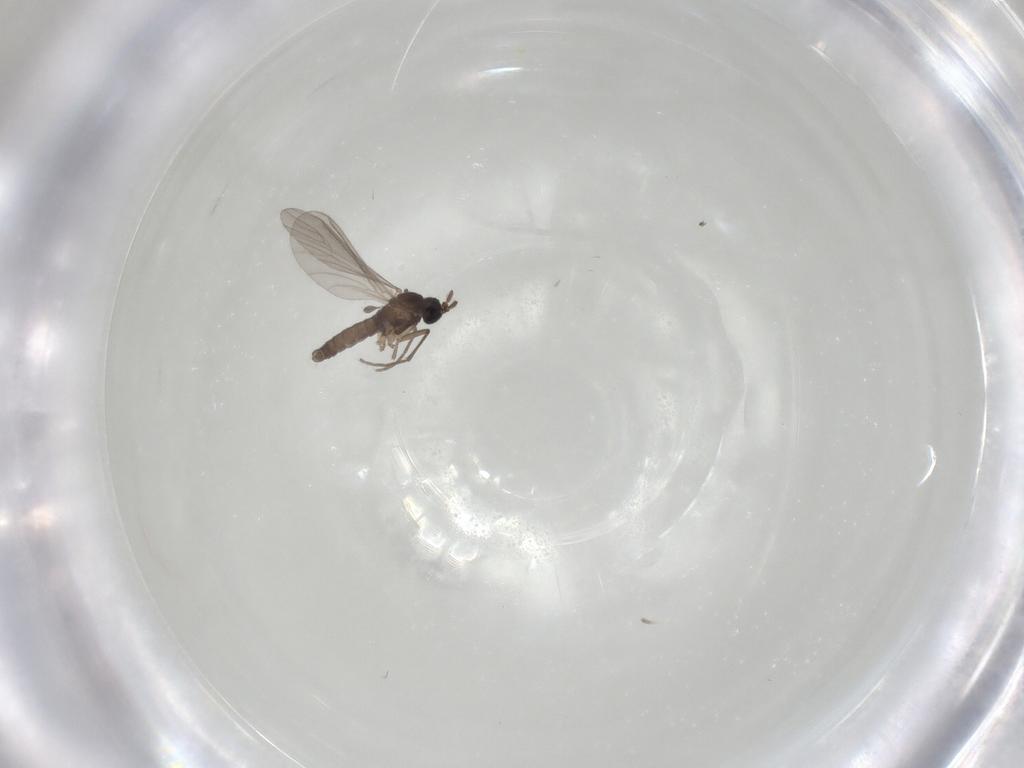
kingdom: Animalia
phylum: Arthropoda
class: Insecta
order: Diptera
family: Sciaridae
